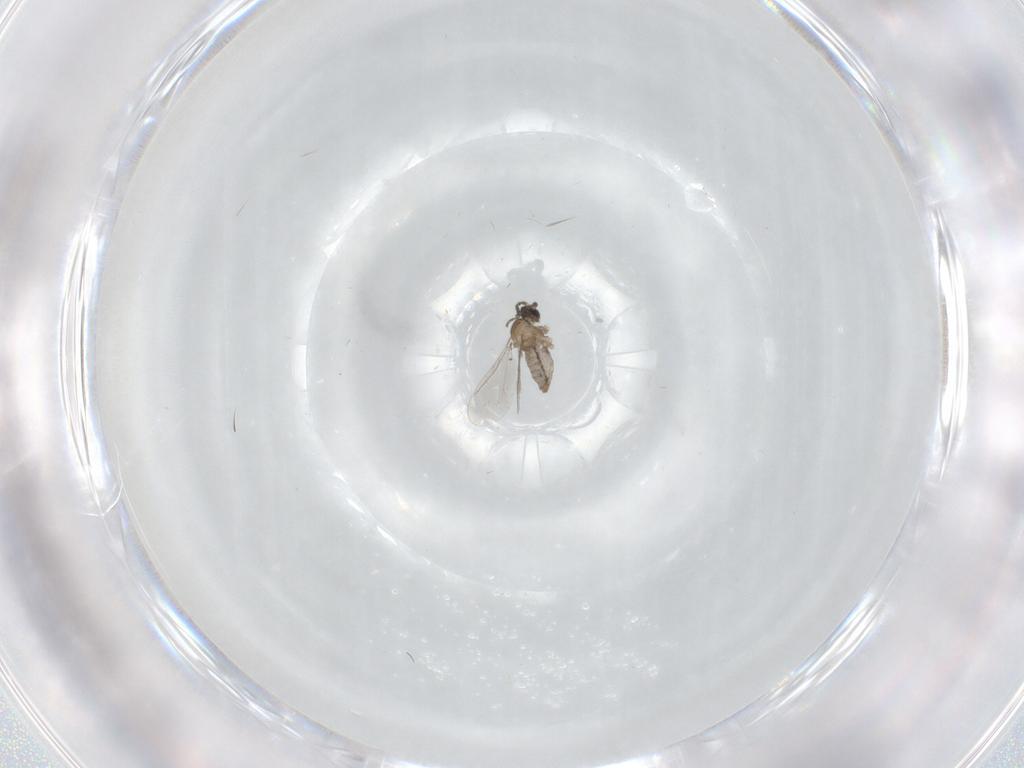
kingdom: Animalia
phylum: Arthropoda
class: Insecta
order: Diptera
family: Cecidomyiidae
